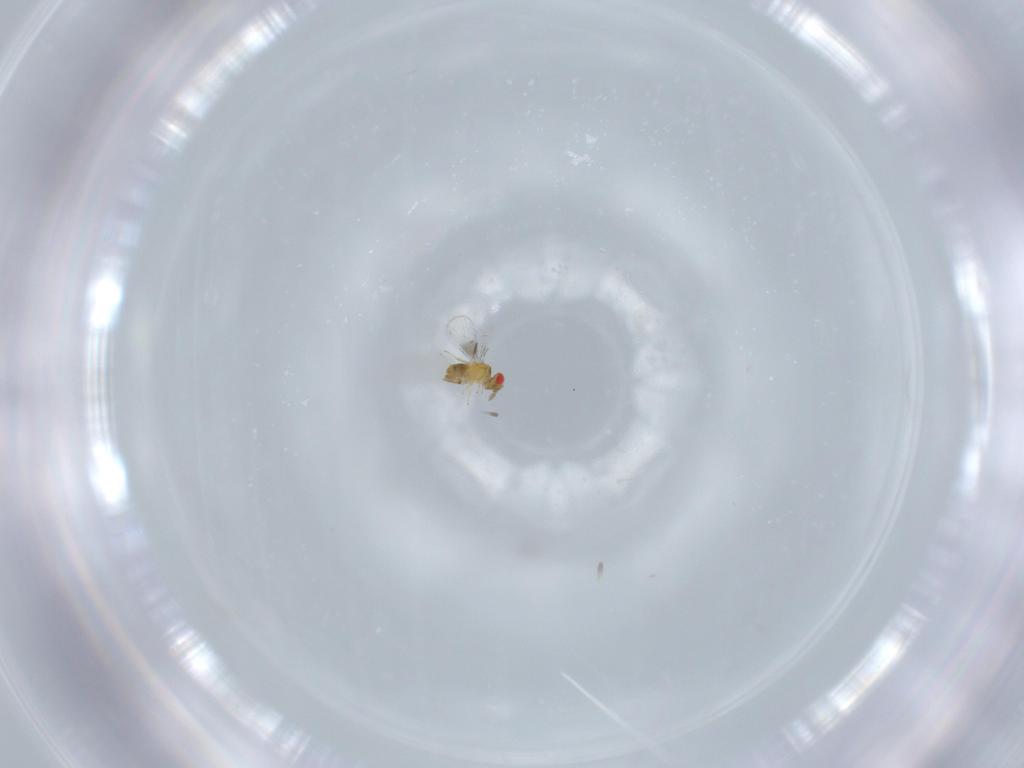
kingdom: Animalia
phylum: Arthropoda
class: Insecta
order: Hymenoptera
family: Trichogrammatidae
